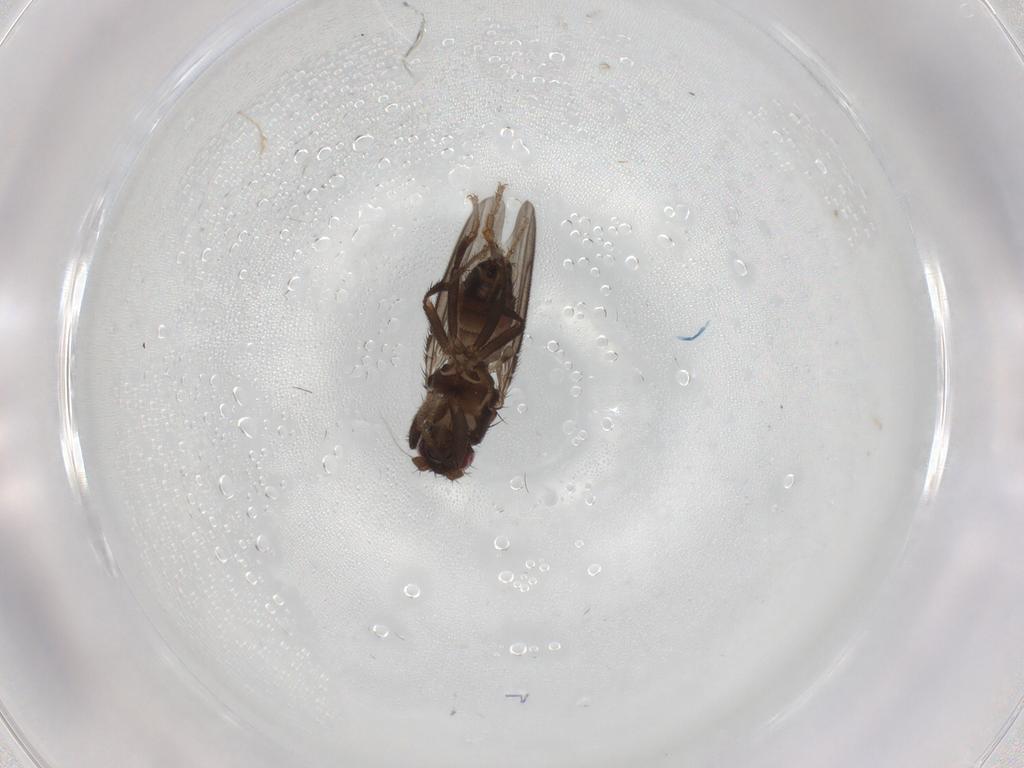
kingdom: Animalia
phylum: Arthropoda
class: Insecta
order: Diptera
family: Sphaeroceridae
